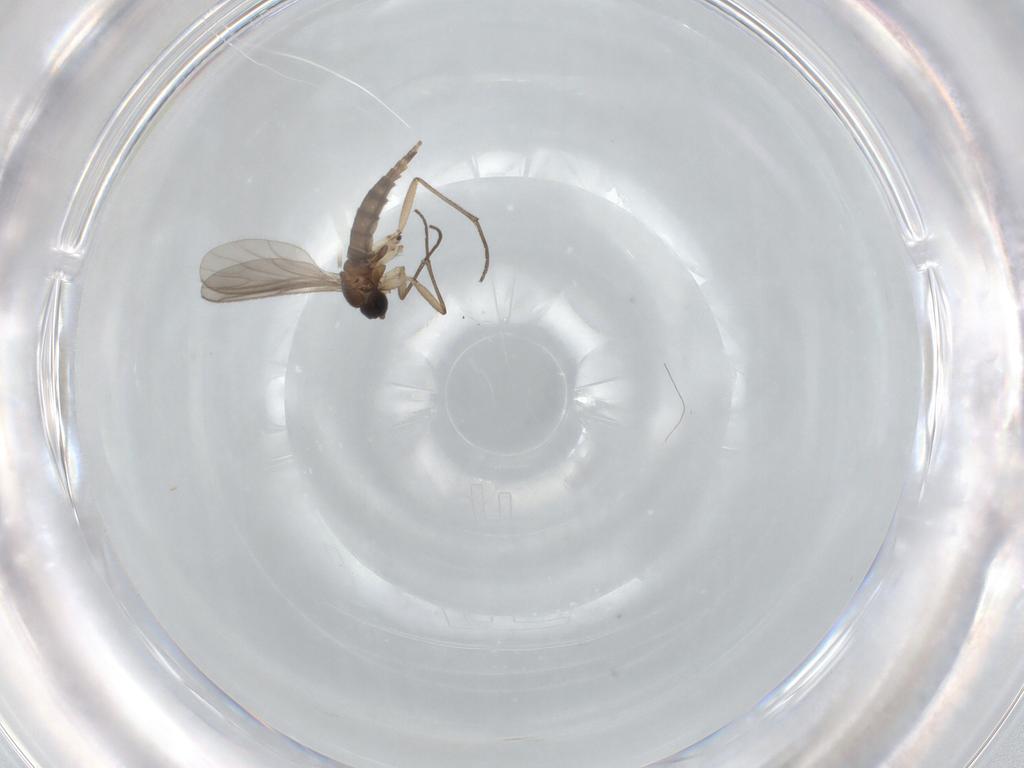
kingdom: Animalia
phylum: Arthropoda
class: Insecta
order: Diptera
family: Sciaridae
